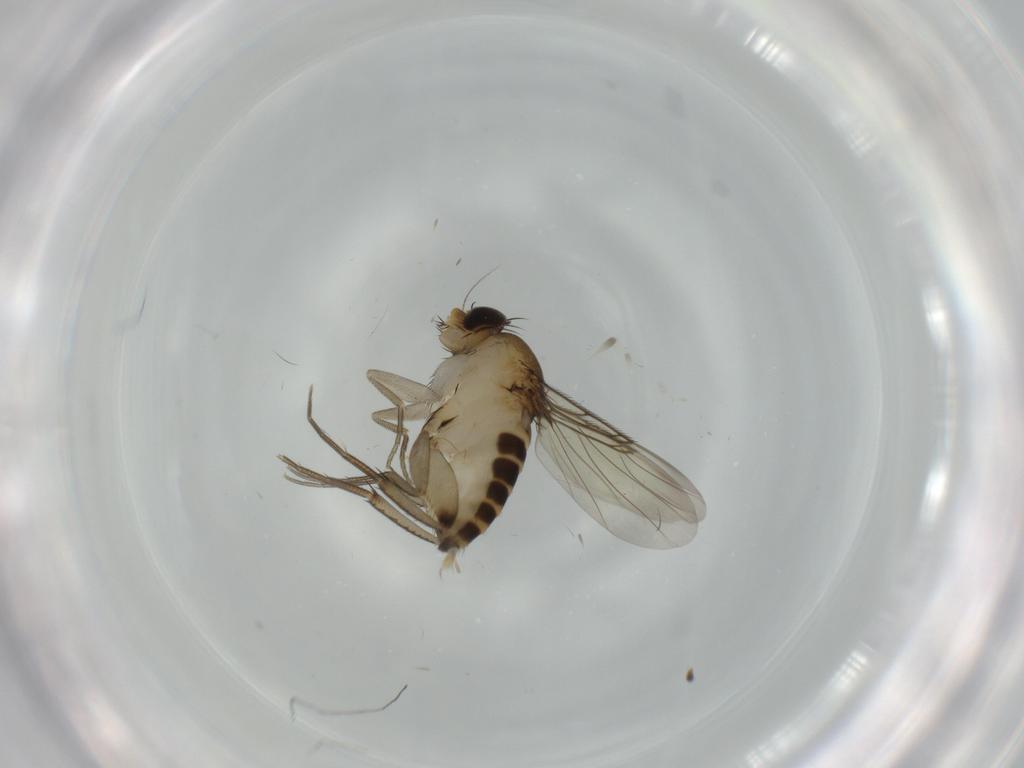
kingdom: Animalia
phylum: Arthropoda
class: Insecta
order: Diptera
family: Phoridae
